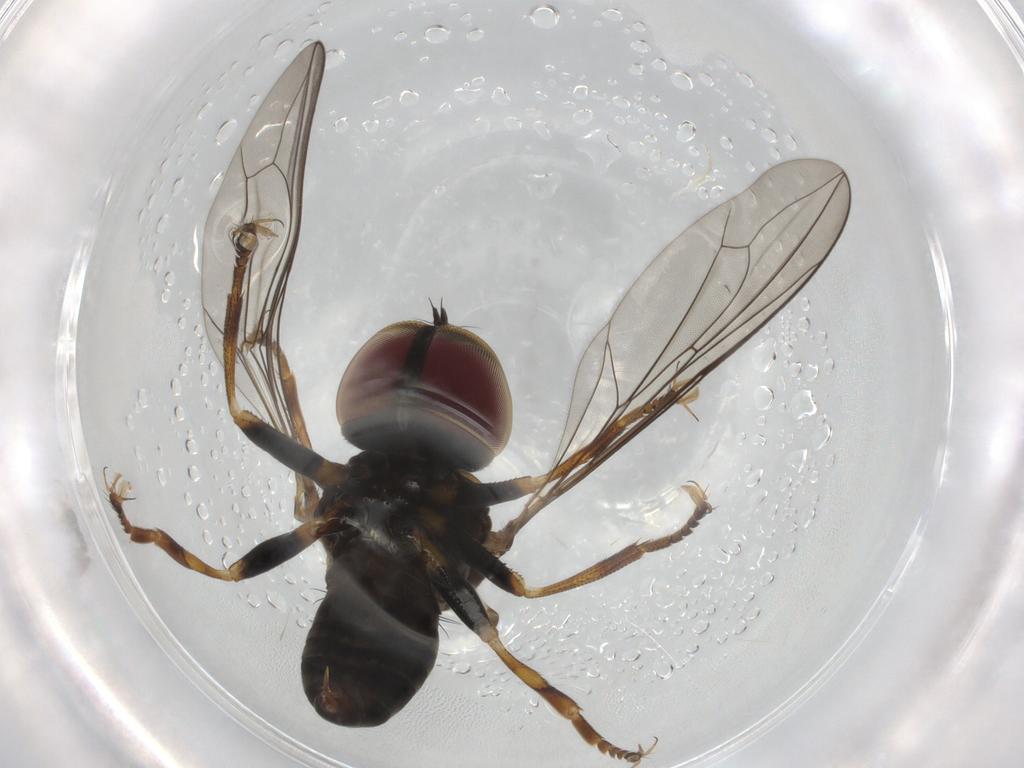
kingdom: Animalia
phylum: Arthropoda
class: Insecta
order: Diptera
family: Pipunculidae
